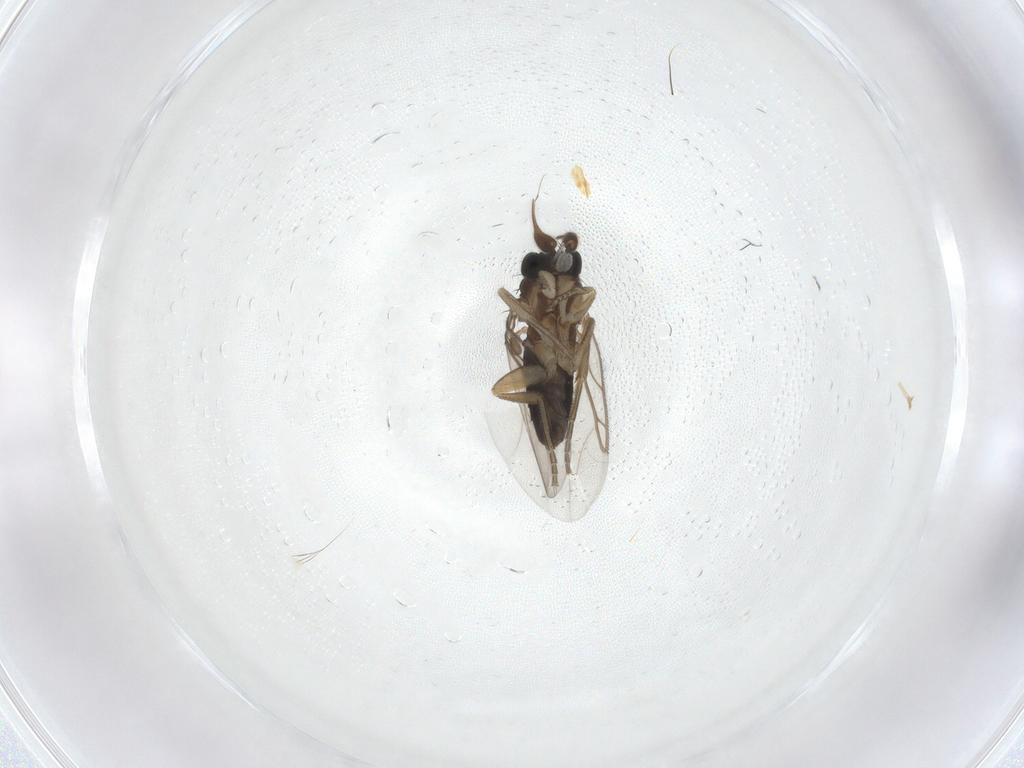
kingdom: Animalia
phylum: Arthropoda
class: Insecta
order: Diptera
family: Phoridae
